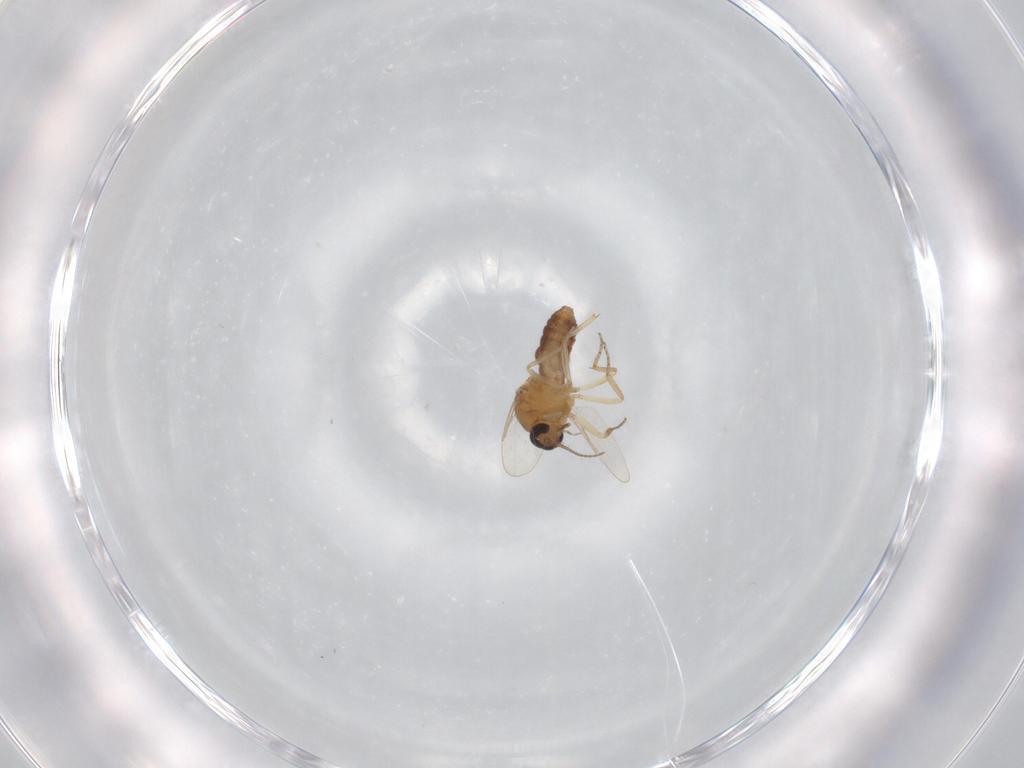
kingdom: Animalia
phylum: Arthropoda
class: Insecta
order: Diptera
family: Ceratopogonidae
